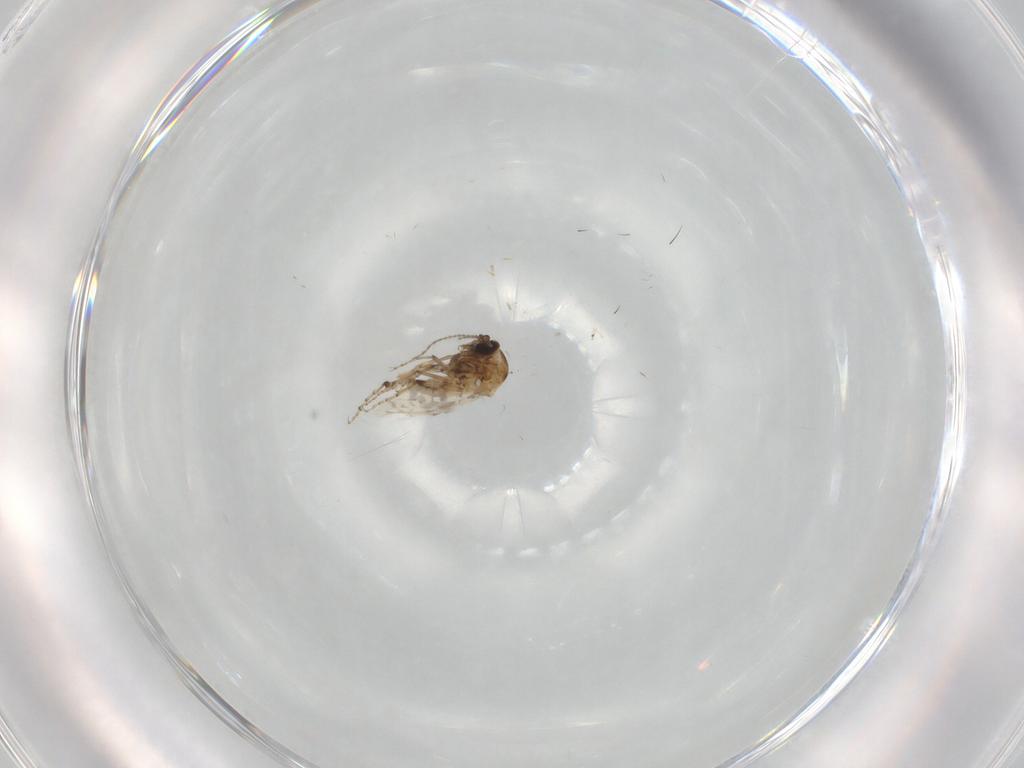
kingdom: Animalia
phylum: Arthropoda
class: Insecta
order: Diptera
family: Ceratopogonidae
